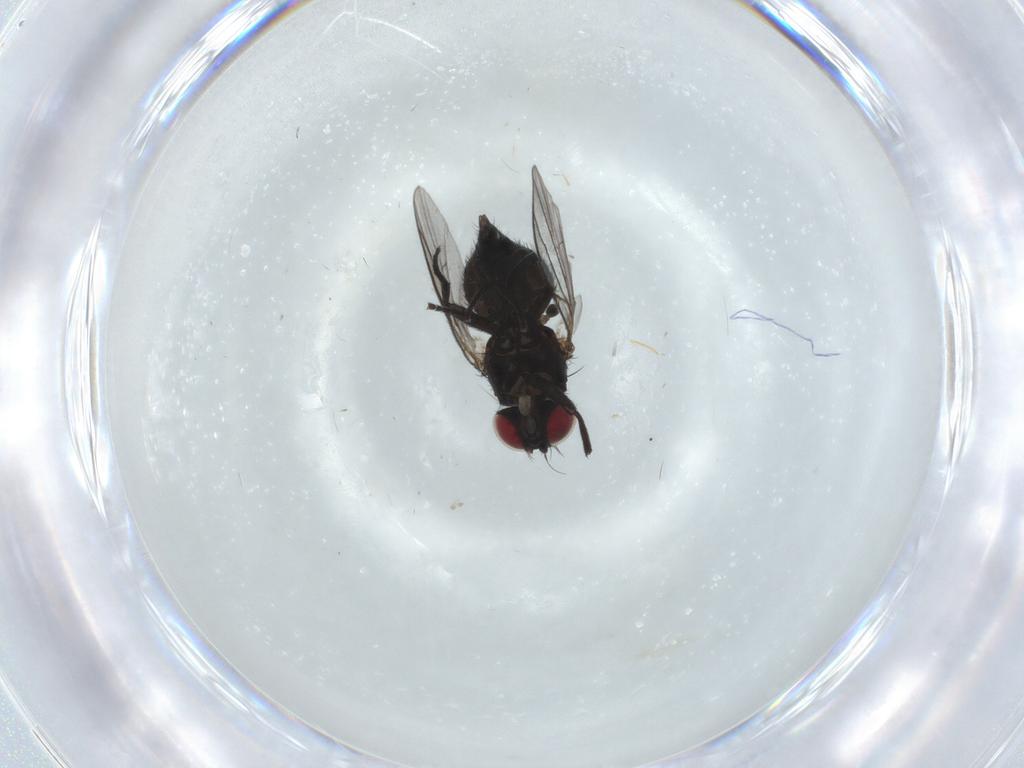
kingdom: Animalia
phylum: Arthropoda
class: Insecta
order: Diptera
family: Agromyzidae
